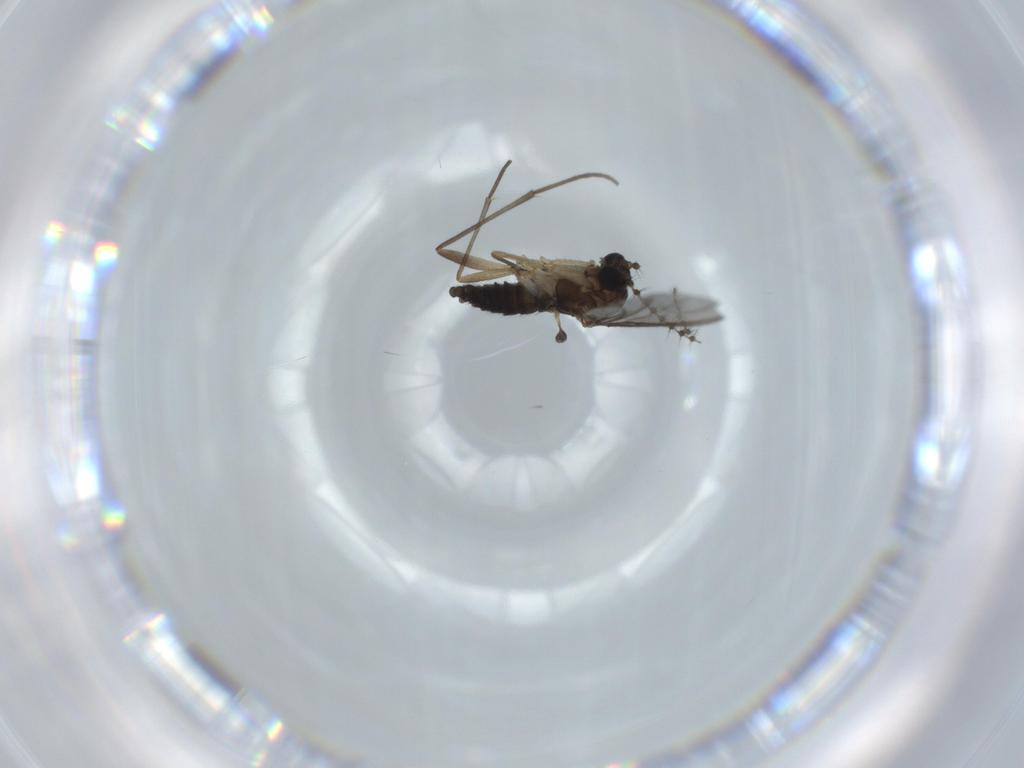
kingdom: Animalia
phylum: Arthropoda
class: Insecta
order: Diptera
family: Sciaridae
